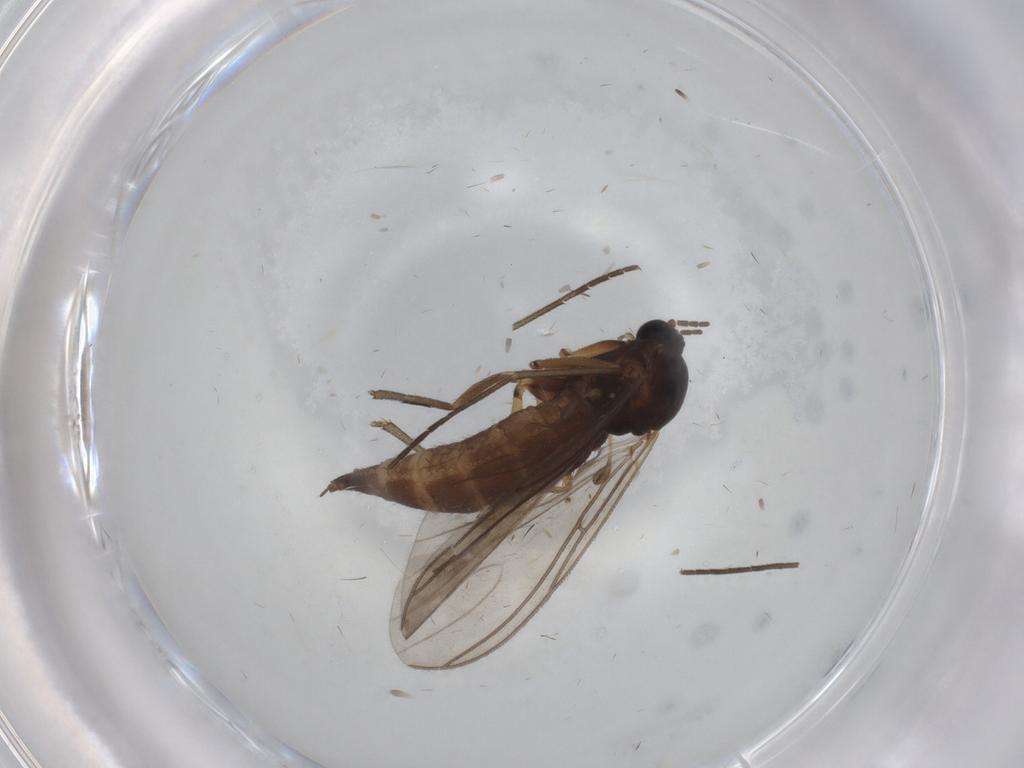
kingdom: Animalia
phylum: Arthropoda
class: Insecta
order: Diptera
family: Sciaridae
